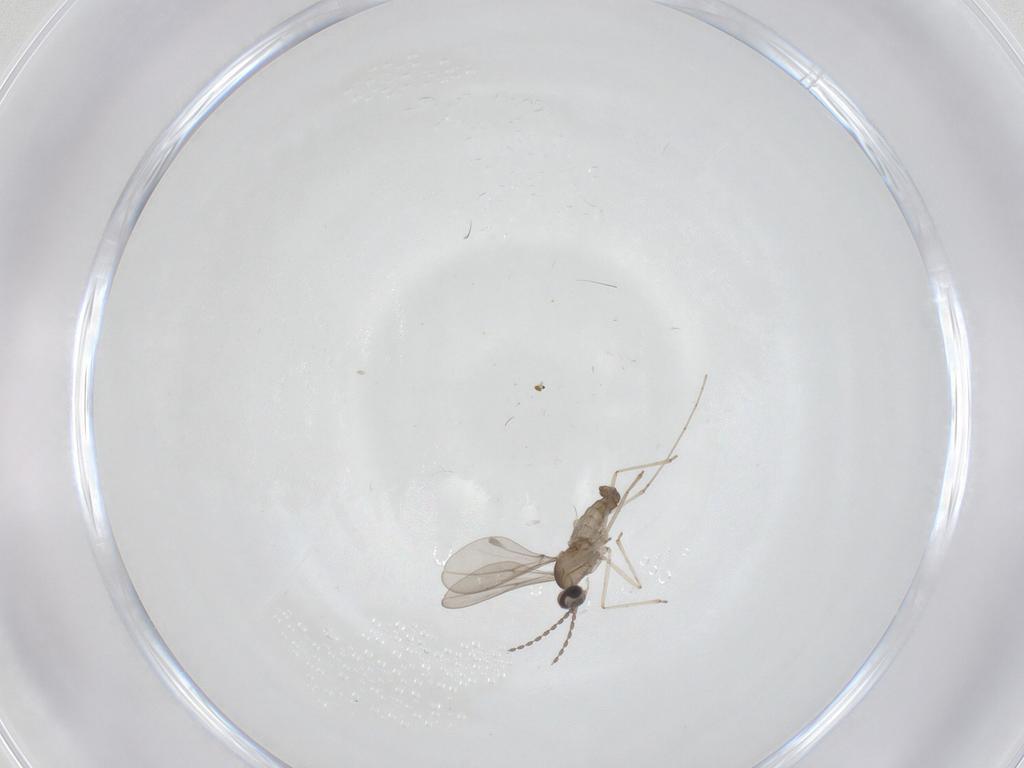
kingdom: Animalia
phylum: Arthropoda
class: Insecta
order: Diptera
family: Cecidomyiidae
